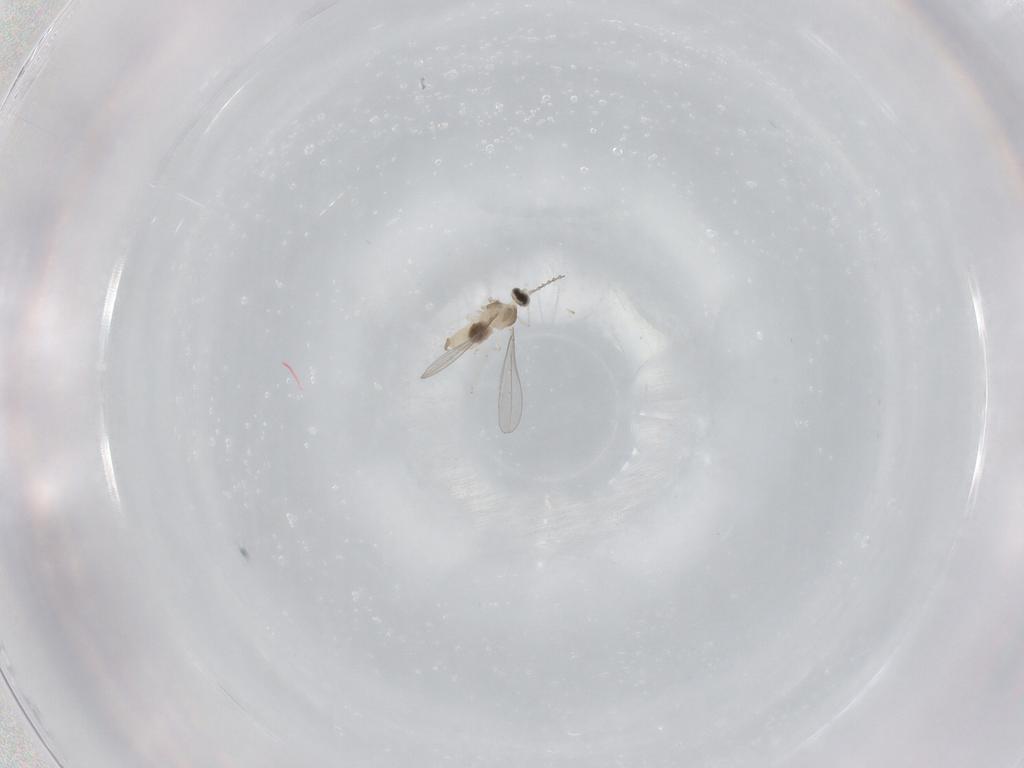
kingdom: Animalia
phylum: Arthropoda
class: Insecta
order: Diptera
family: Cecidomyiidae
